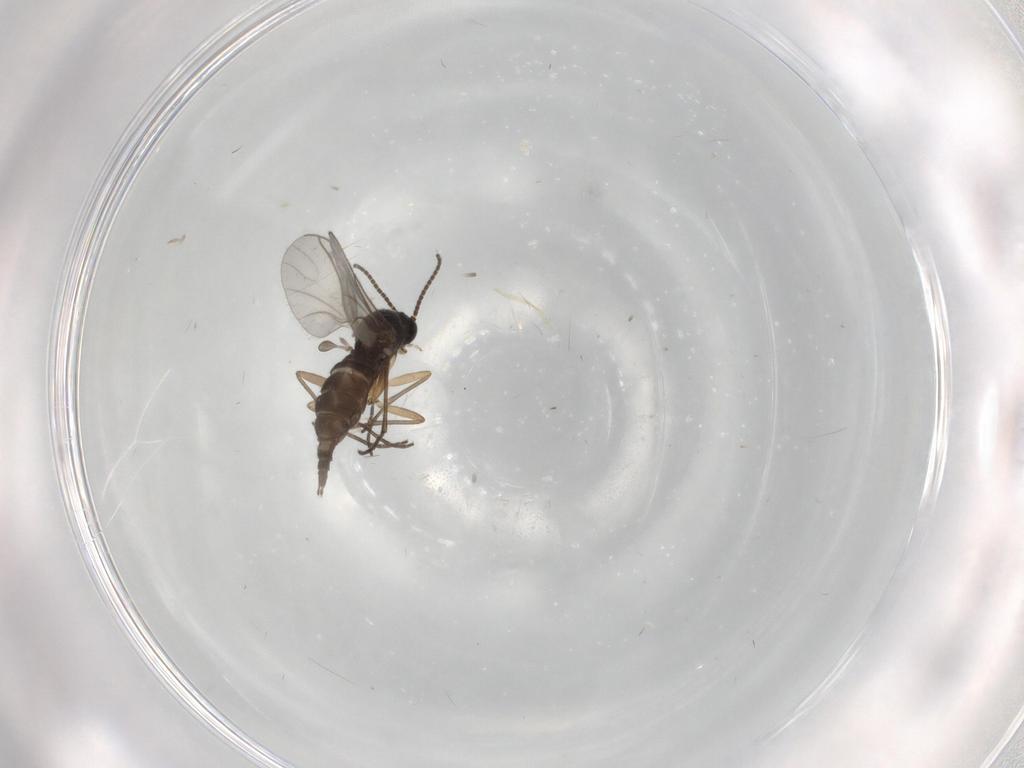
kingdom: Animalia
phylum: Arthropoda
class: Insecta
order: Diptera
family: Sciaridae
